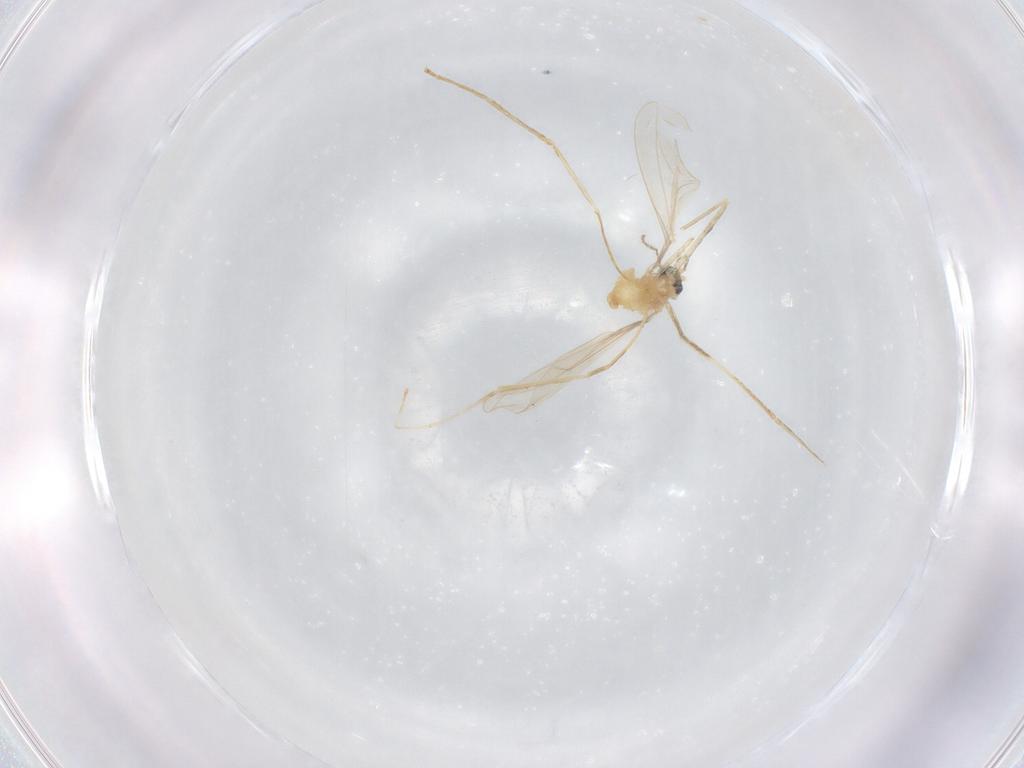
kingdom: Animalia
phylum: Arthropoda
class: Insecta
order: Diptera
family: Cecidomyiidae
